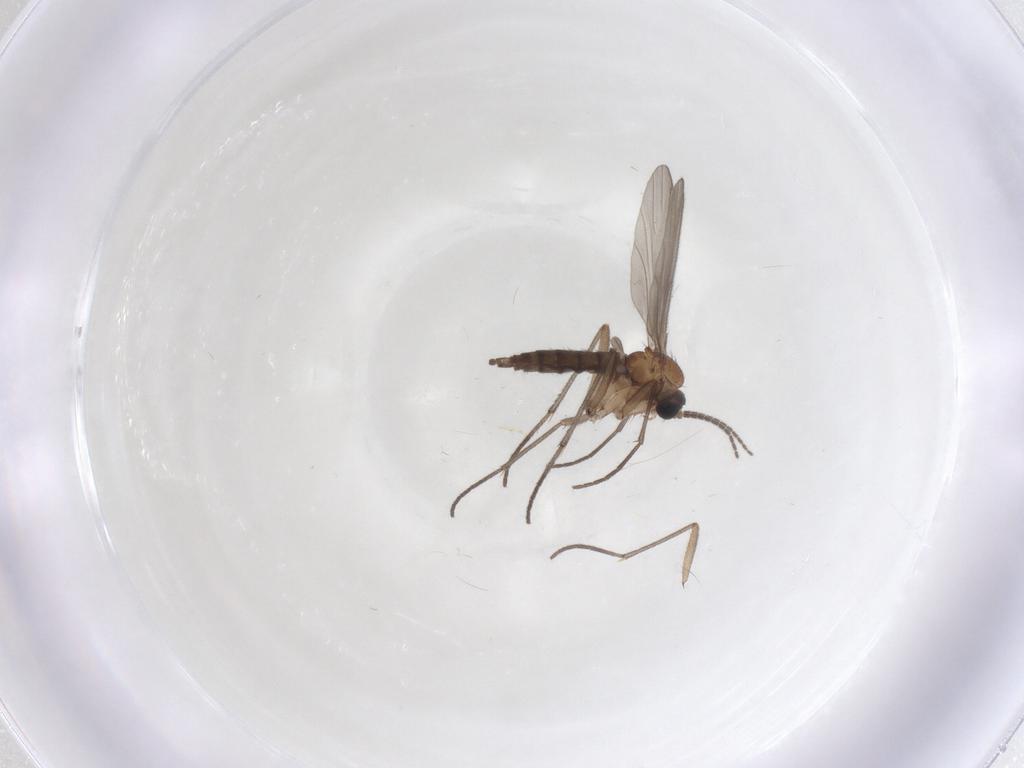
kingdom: Animalia
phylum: Arthropoda
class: Insecta
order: Diptera
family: Sciaridae
